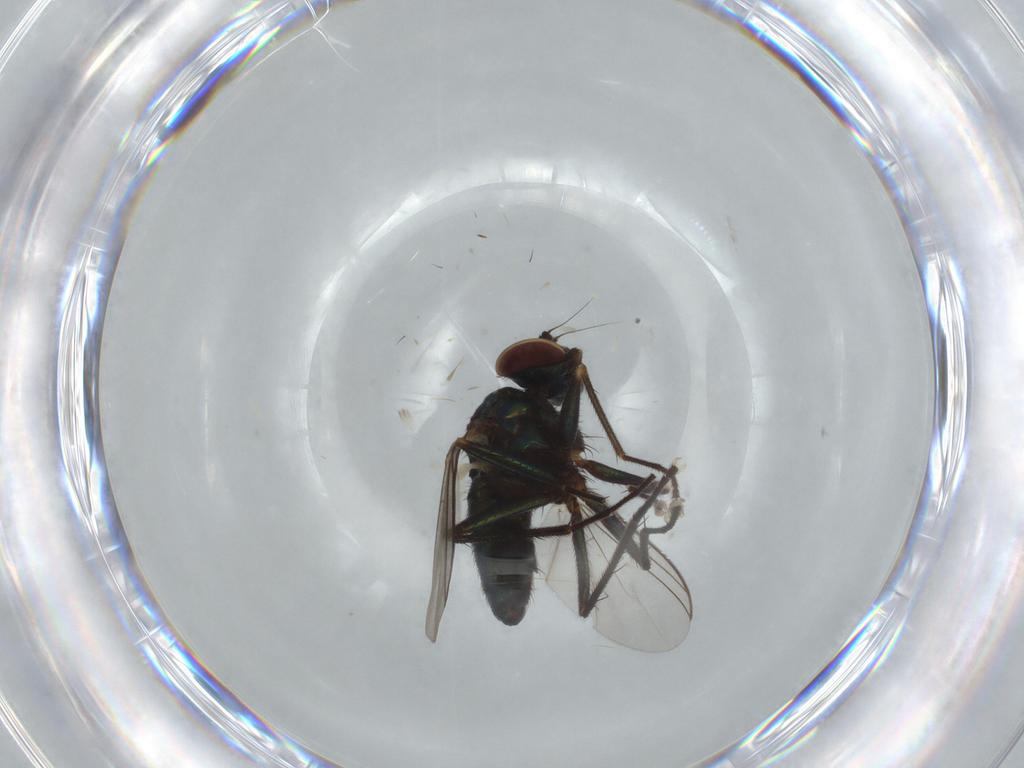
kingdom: Animalia
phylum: Arthropoda
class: Insecta
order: Diptera
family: Dolichopodidae
